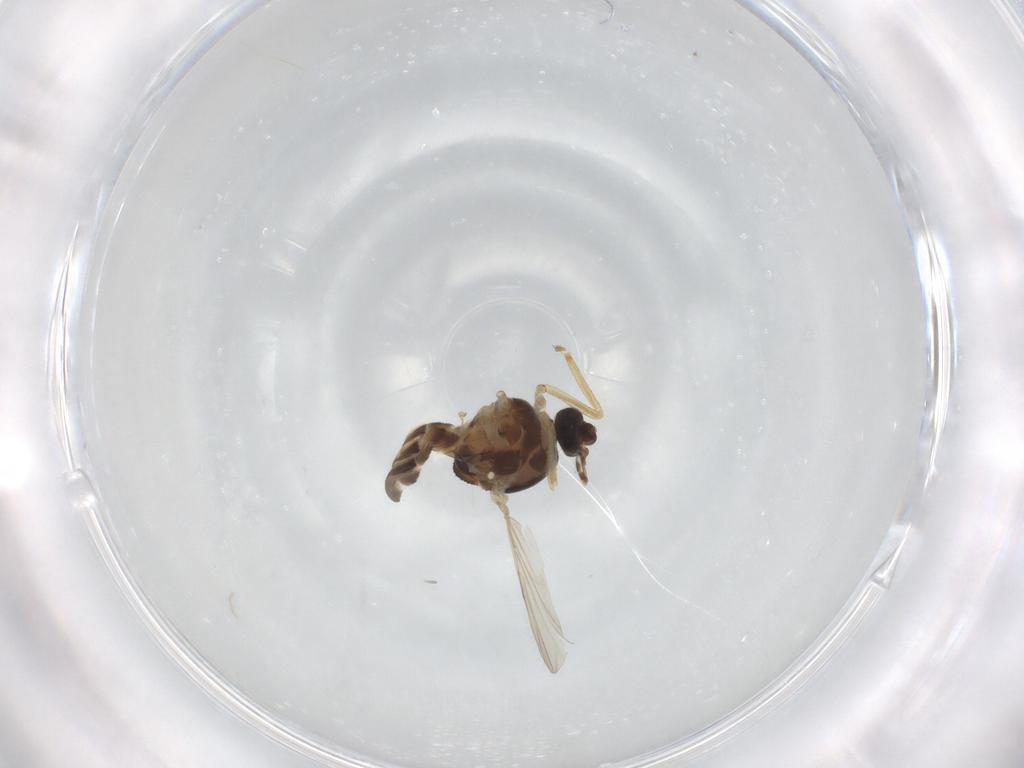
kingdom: Animalia
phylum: Arthropoda
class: Insecta
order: Diptera
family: Ceratopogonidae
